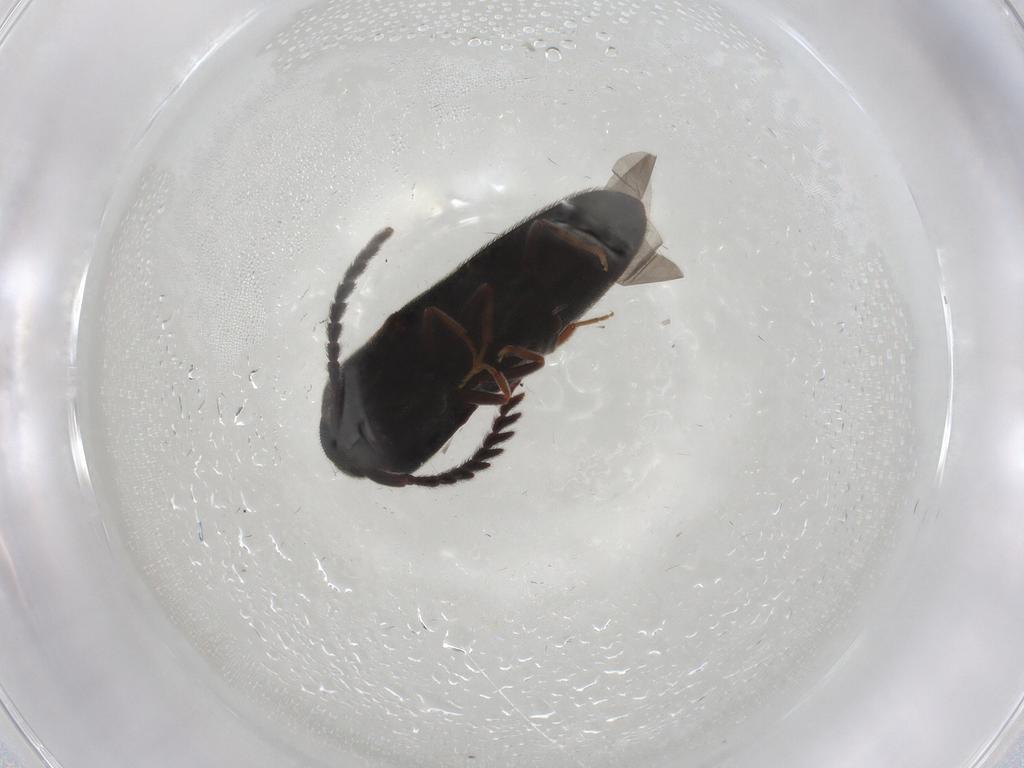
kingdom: Animalia
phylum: Arthropoda
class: Insecta
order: Coleoptera
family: Eucnemidae
